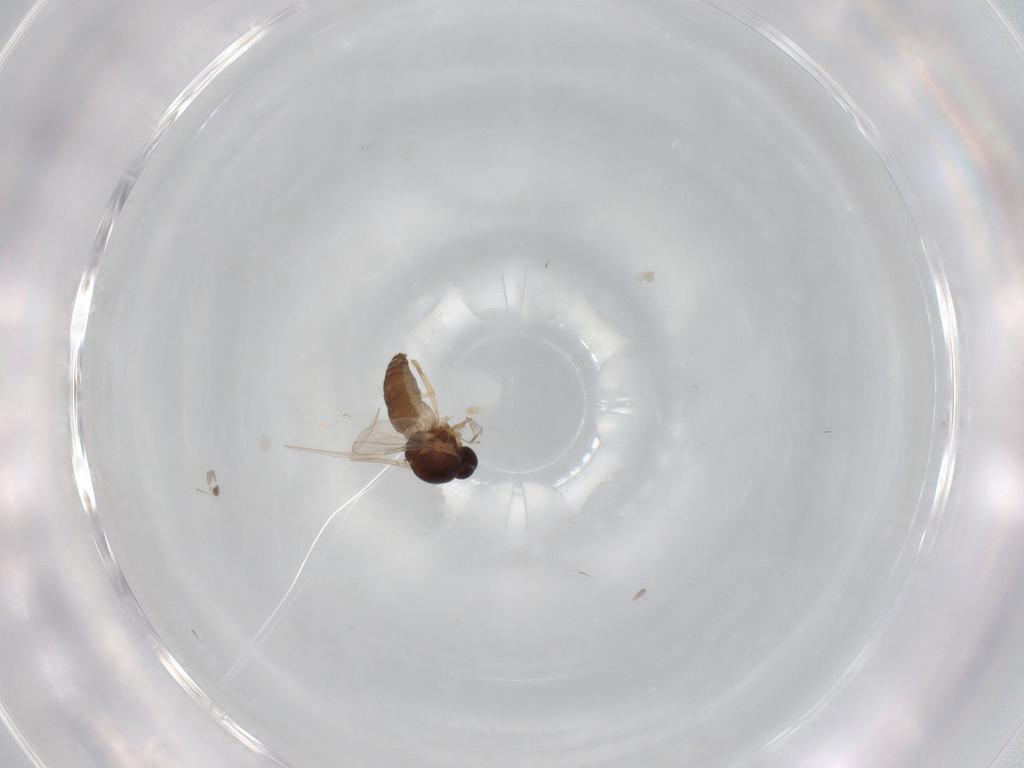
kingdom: Animalia
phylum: Arthropoda
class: Insecta
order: Diptera
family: Ceratopogonidae
